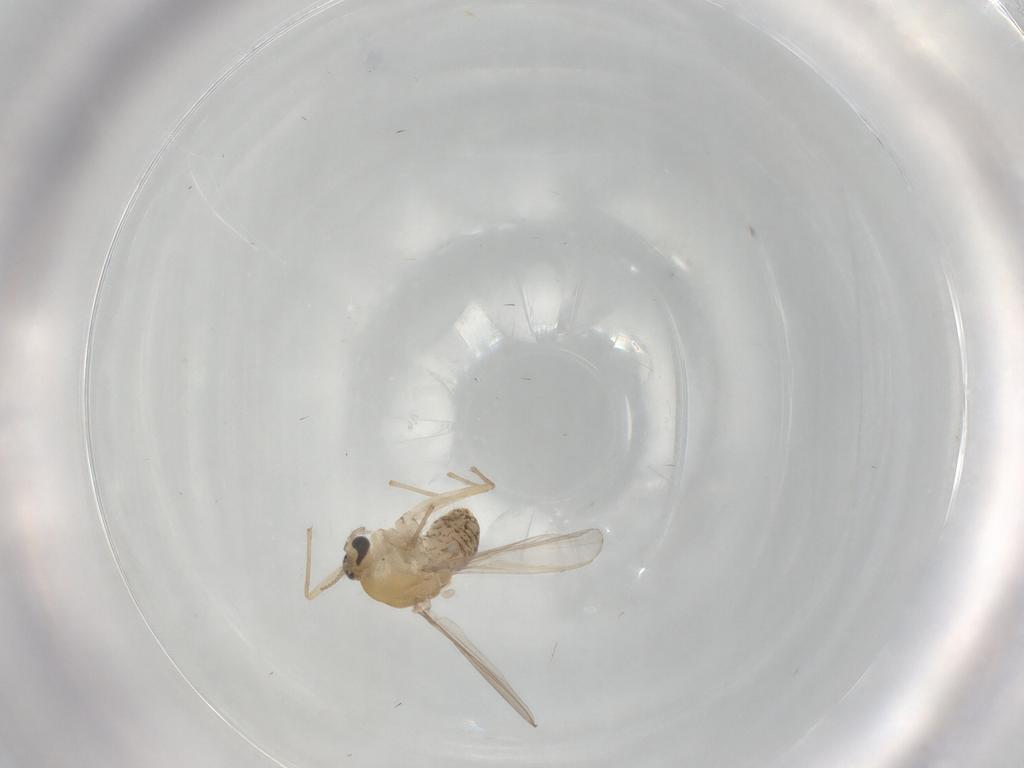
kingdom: Animalia
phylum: Arthropoda
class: Insecta
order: Diptera
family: Chironomidae
